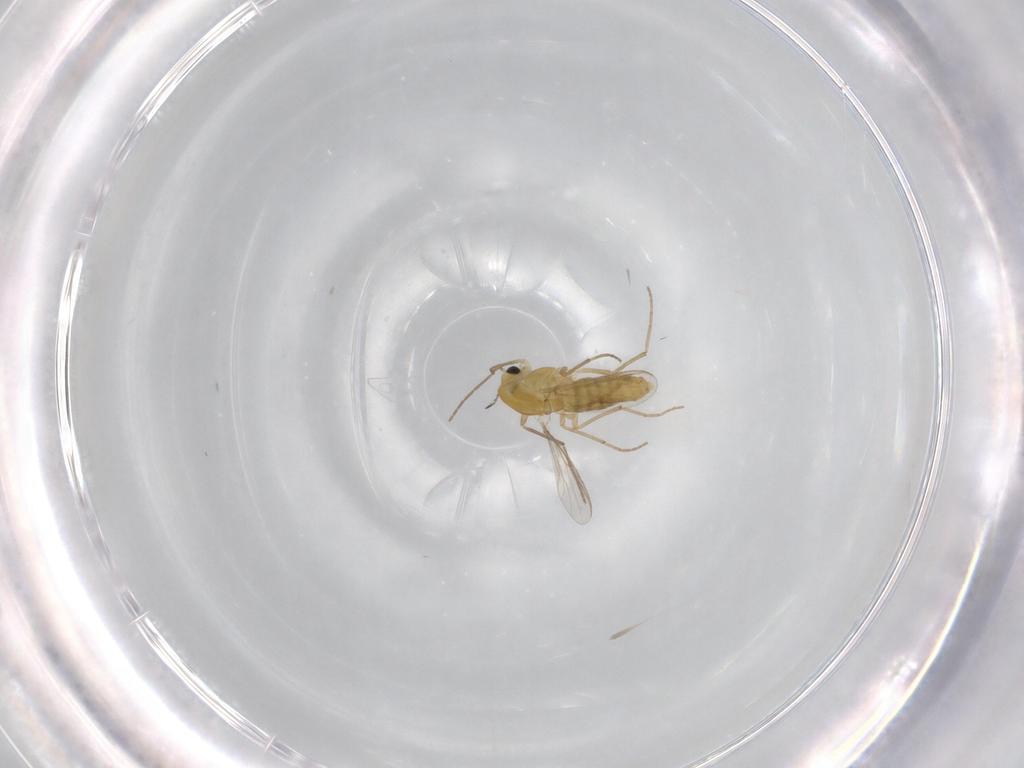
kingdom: Animalia
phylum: Arthropoda
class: Insecta
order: Diptera
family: Chironomidae
